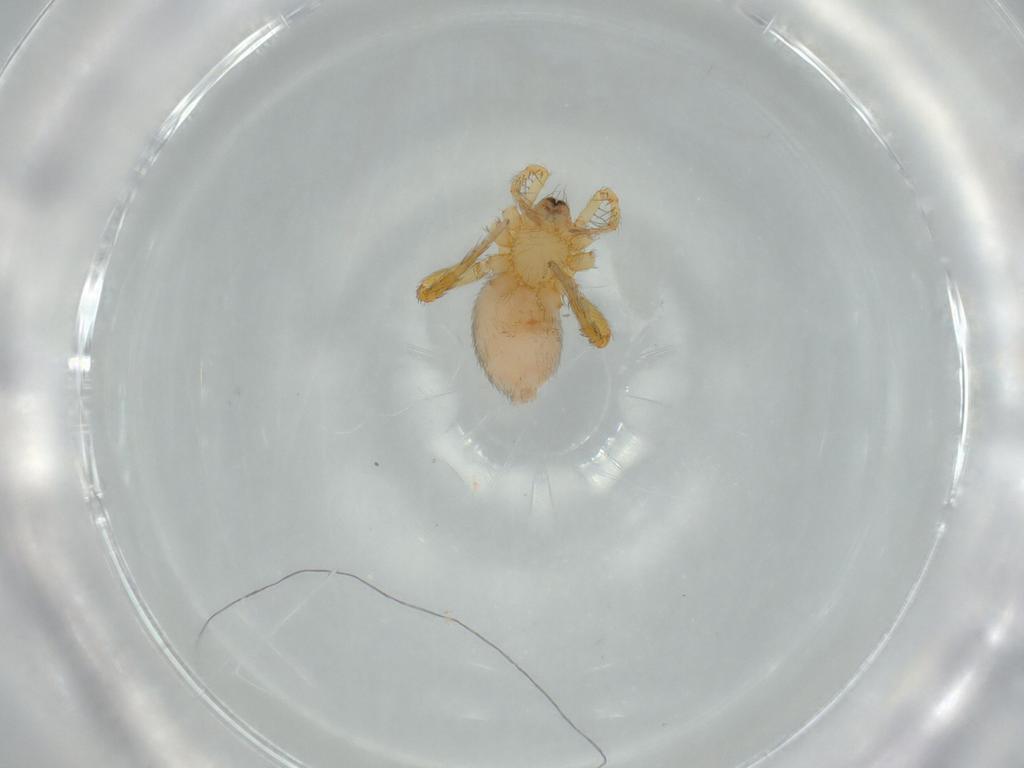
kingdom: Animalia
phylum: Arthropoda
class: Arachnida
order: Araneae
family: Oonopidae
